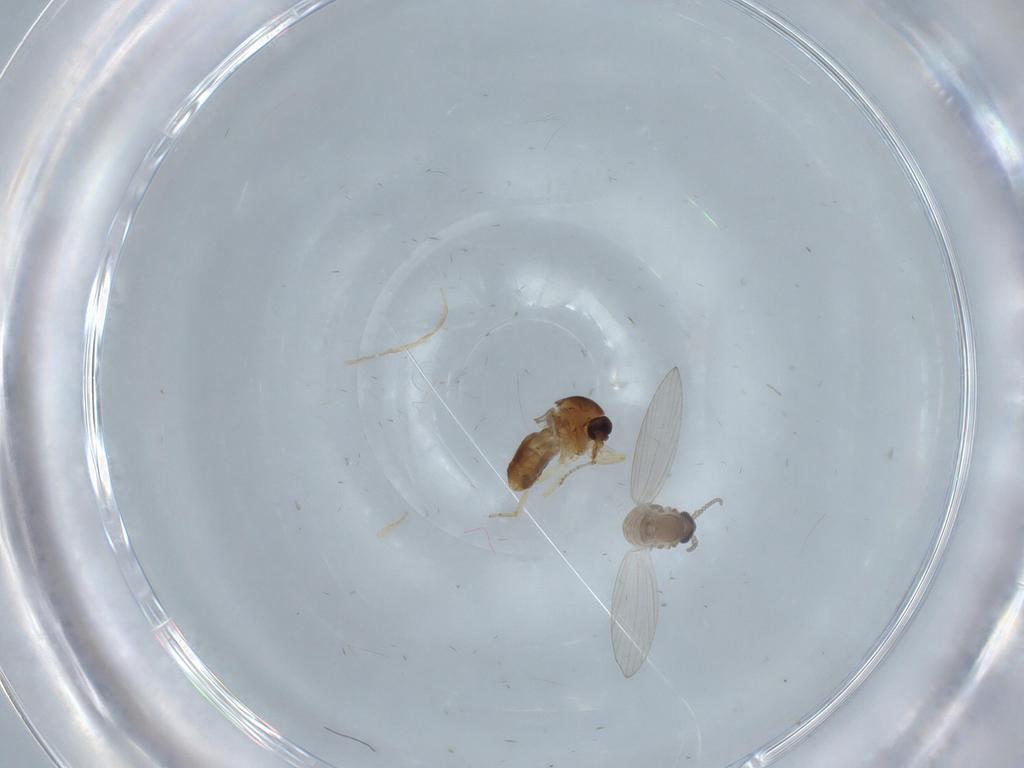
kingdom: Animalia
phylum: Arthropoda
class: Insecta
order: Diptera
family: Psychodidae
